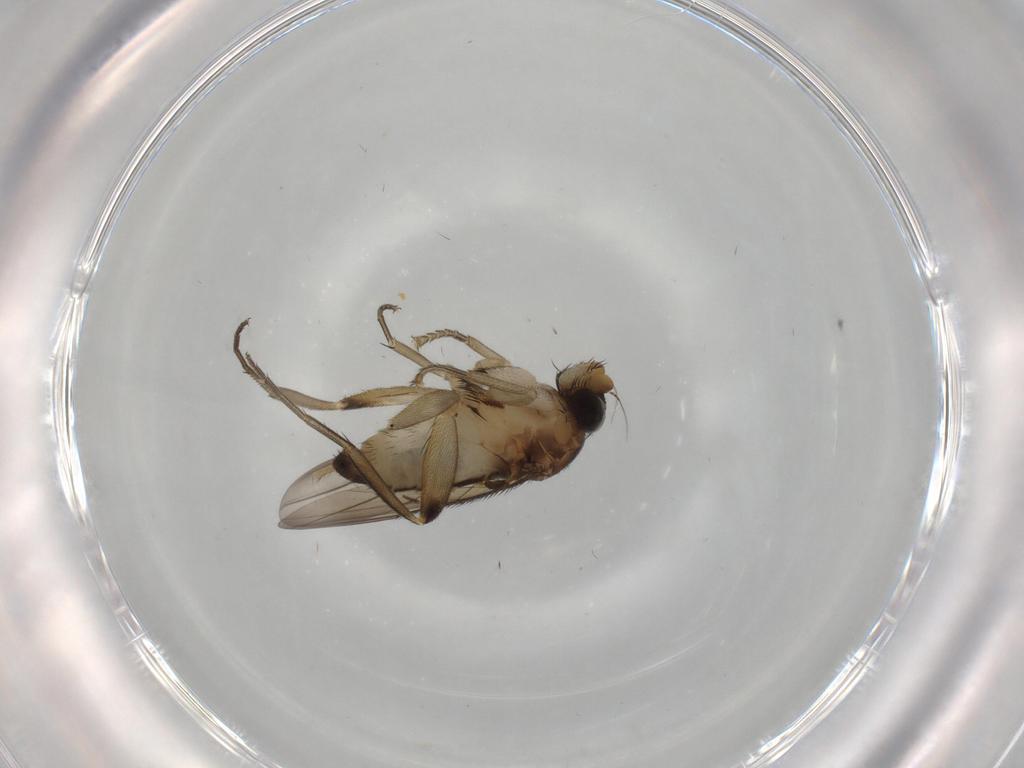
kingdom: Animalia
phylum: Arthropoda
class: Insecta
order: Diptera
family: Phoridae
